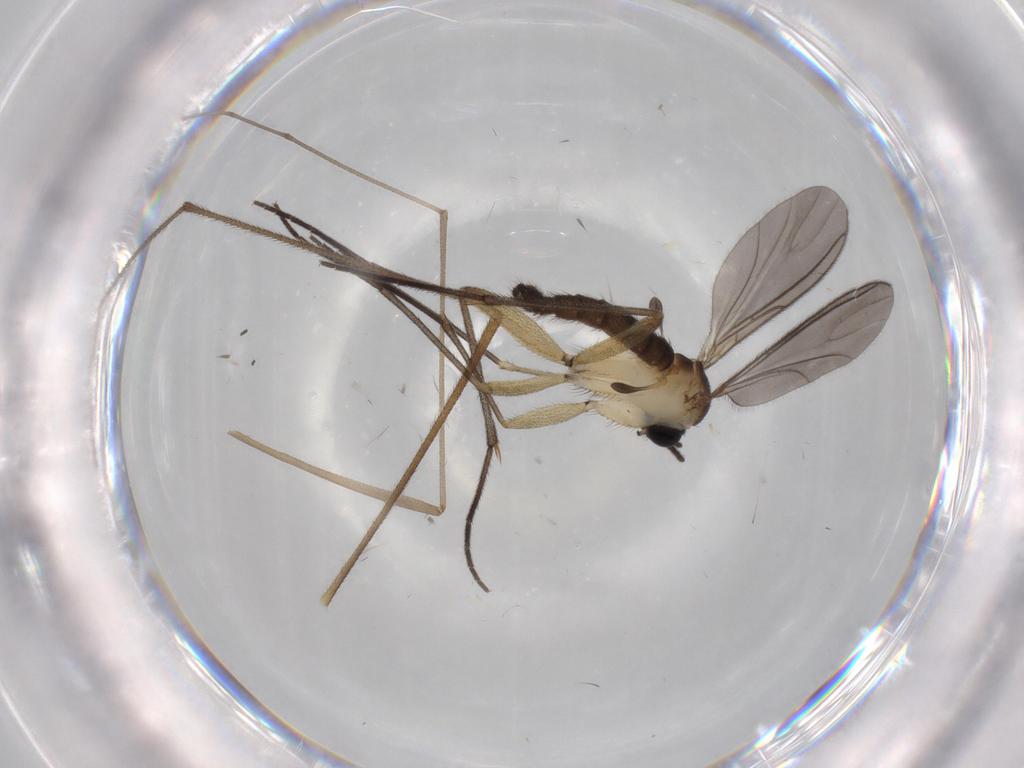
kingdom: Animalia
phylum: Arthropoda
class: Insecta
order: Diptera
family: Sciaridae
